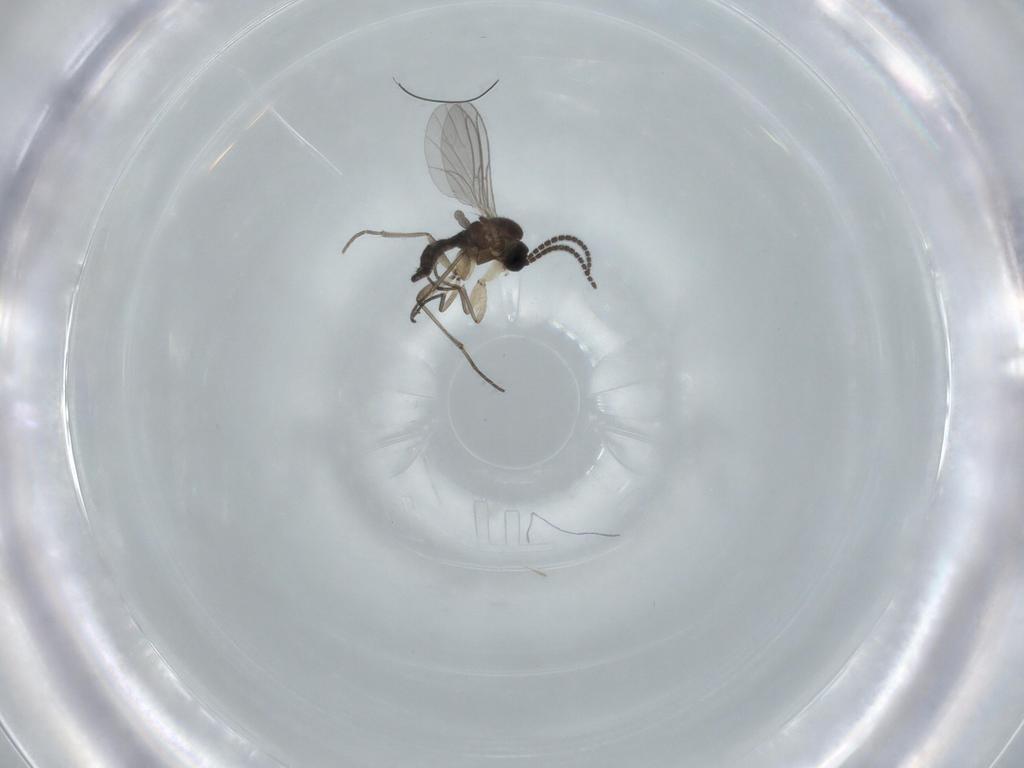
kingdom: Animalia
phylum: Arthropoda
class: Insecta
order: Diptera
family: Sciaridae
